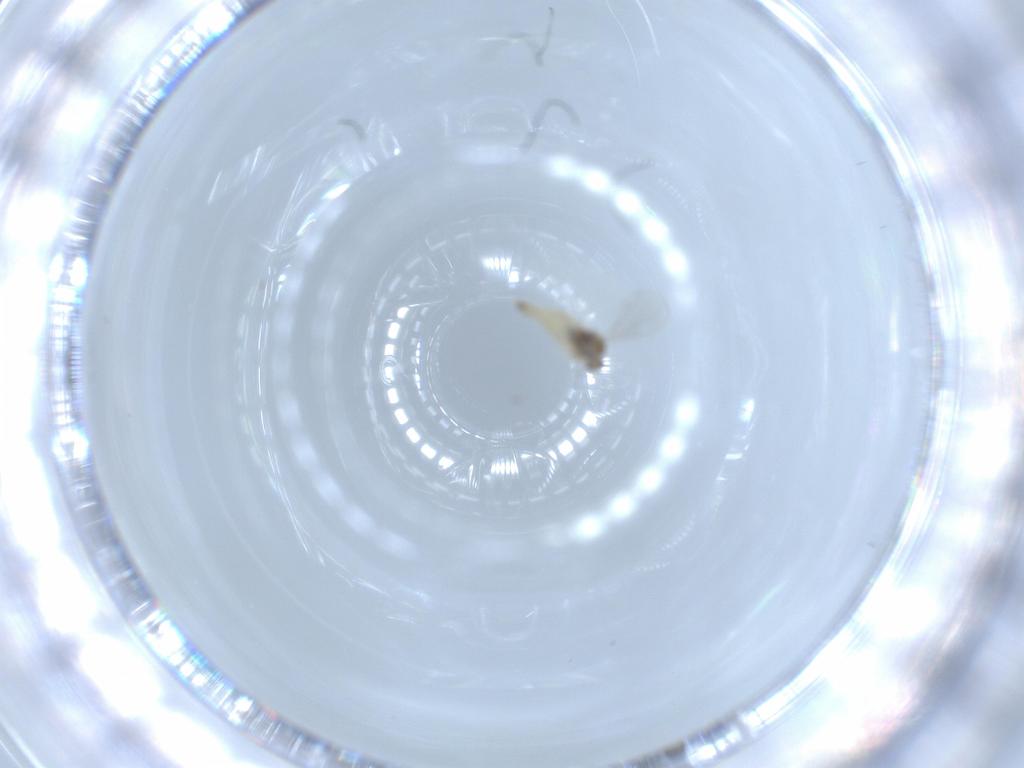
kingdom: Animalia
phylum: Arthropoda
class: Insecta
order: Diptera
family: Cecidomyiidae
